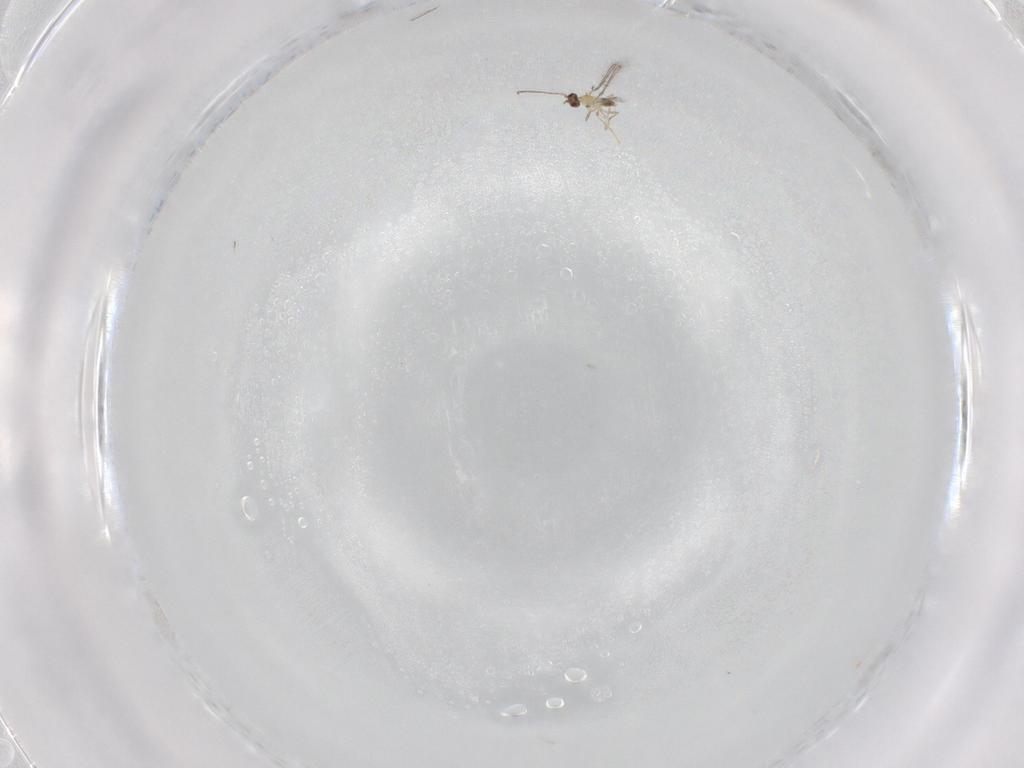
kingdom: Animalia
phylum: Arthropoda
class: Insecta
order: Hymenoptera
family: Mymaridae
